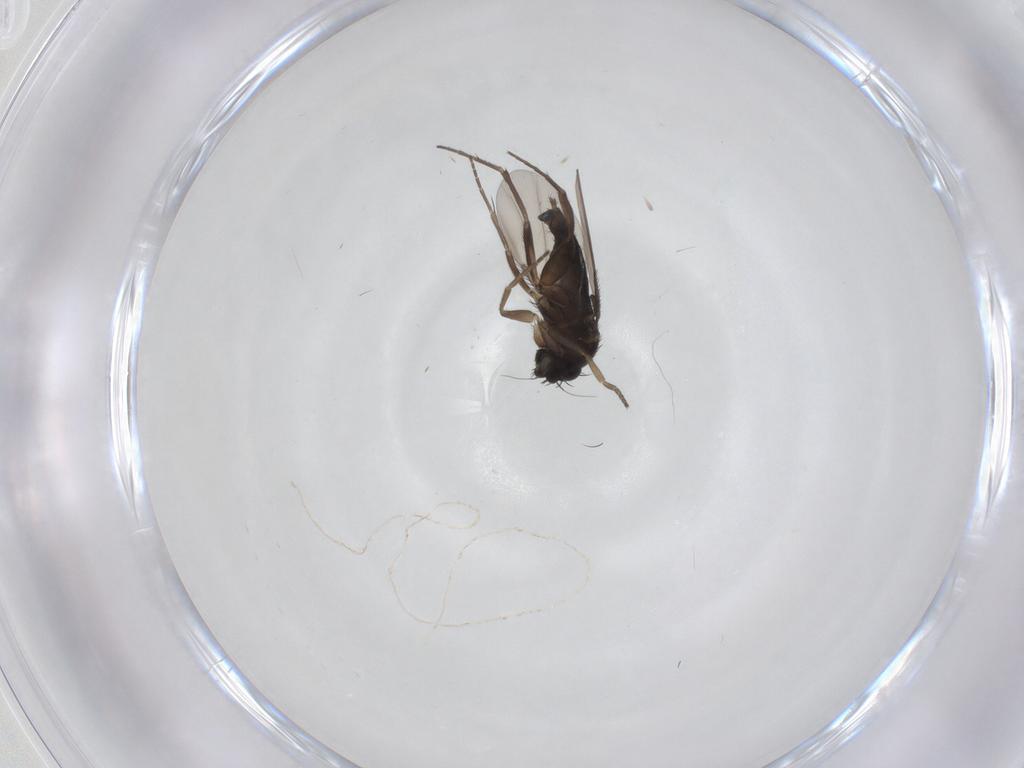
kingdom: Animalia
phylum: Arthropoda
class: Insecta
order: Diptera
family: Phoridae
